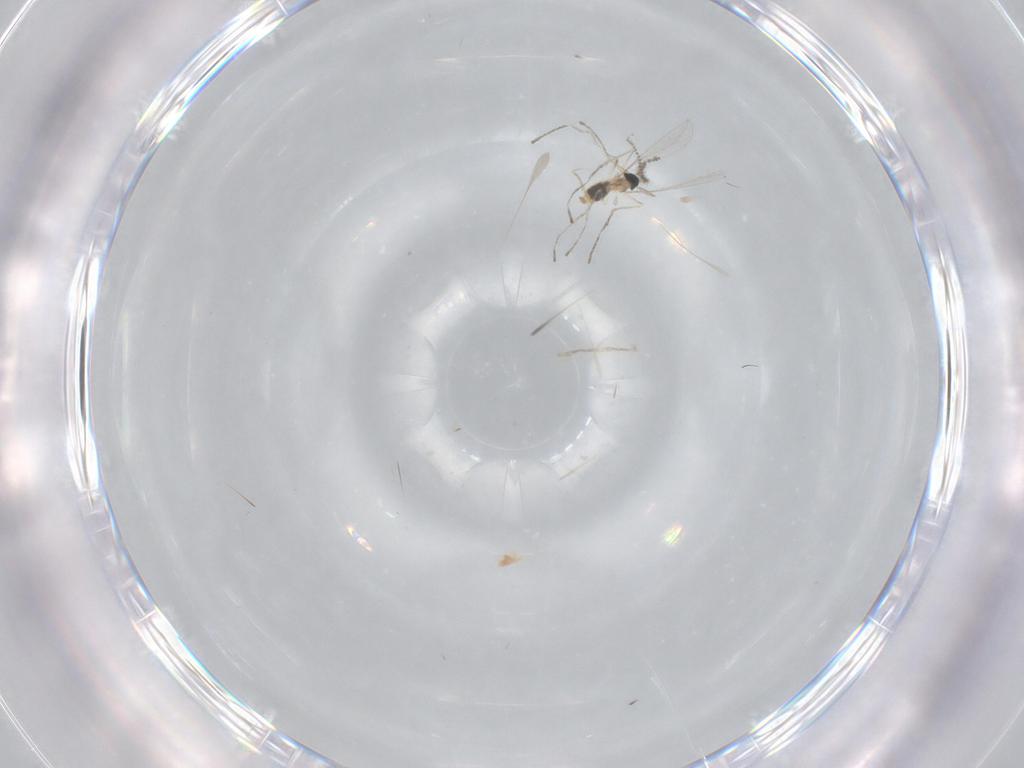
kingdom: Animalia
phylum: Arthropoda
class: Insecta
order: Diptera
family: Cecidomyiidae
